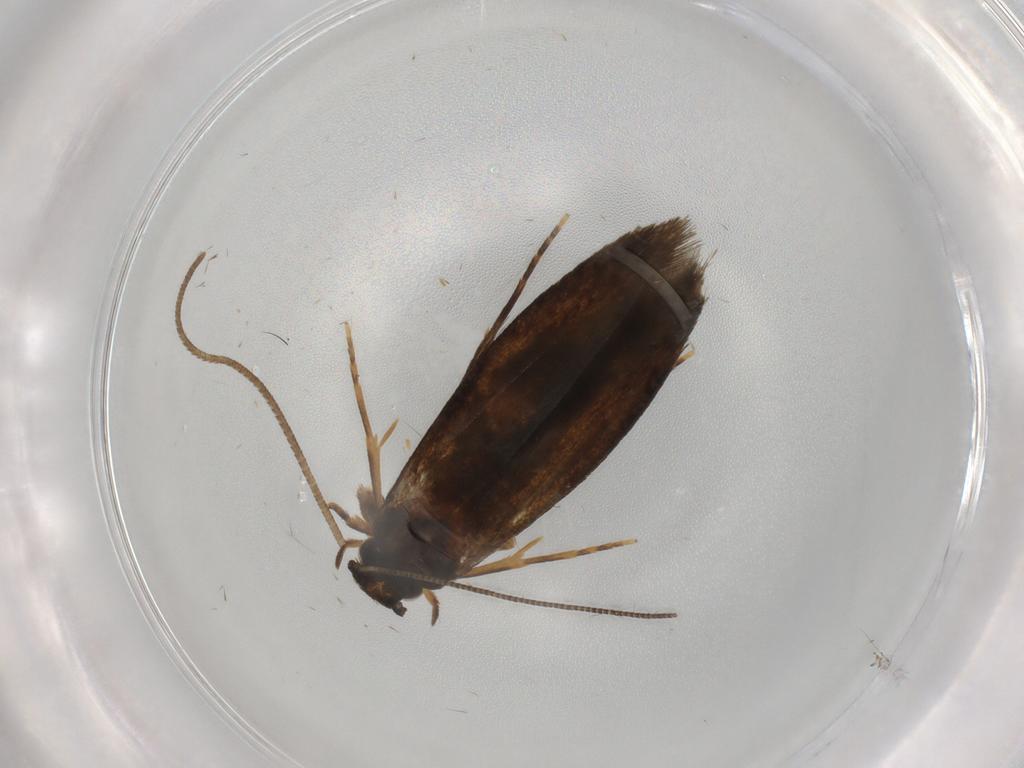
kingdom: Animalia
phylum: Arthropoda
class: Insecta
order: Lepidoptera
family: Tineidae
